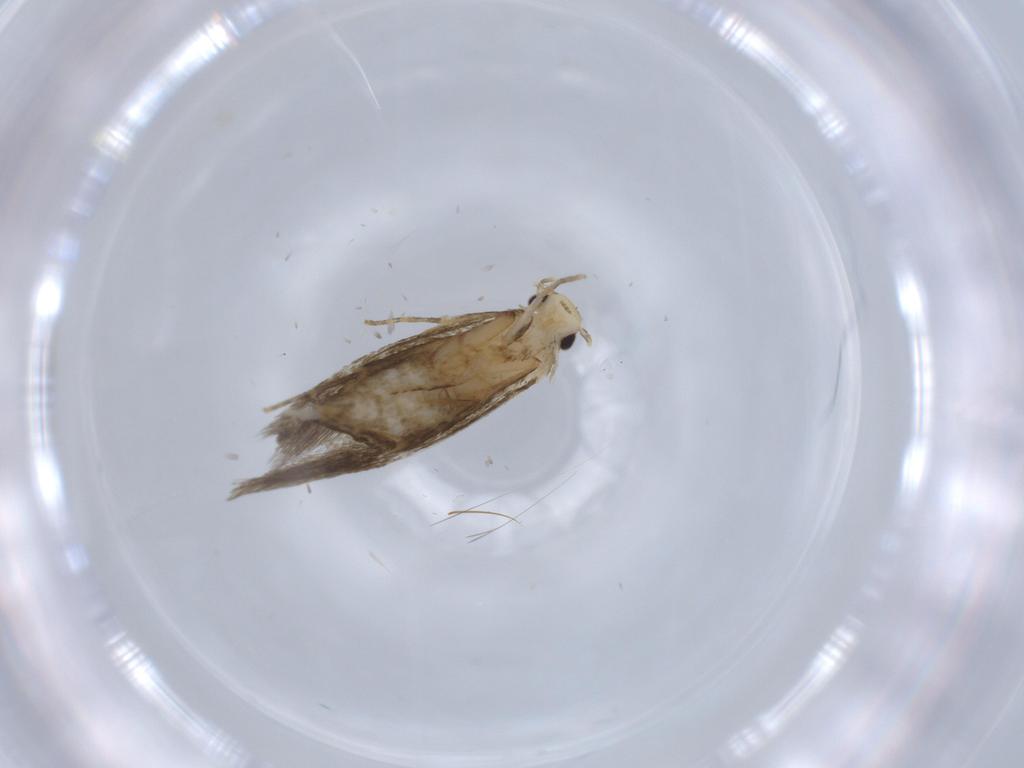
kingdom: Animalia
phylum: Arthropoda
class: Insecta
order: Lepidoptera
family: Tineidae
